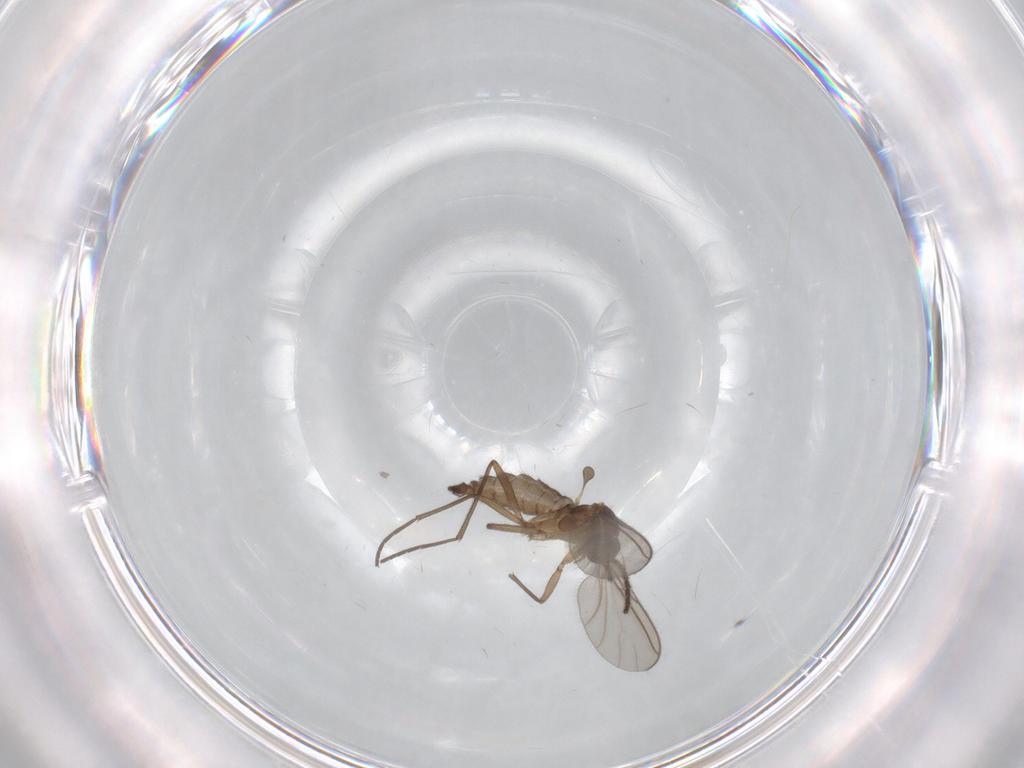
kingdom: Animalia
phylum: Arthropoda
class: Insecta
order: Diptera
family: Sciaridae
